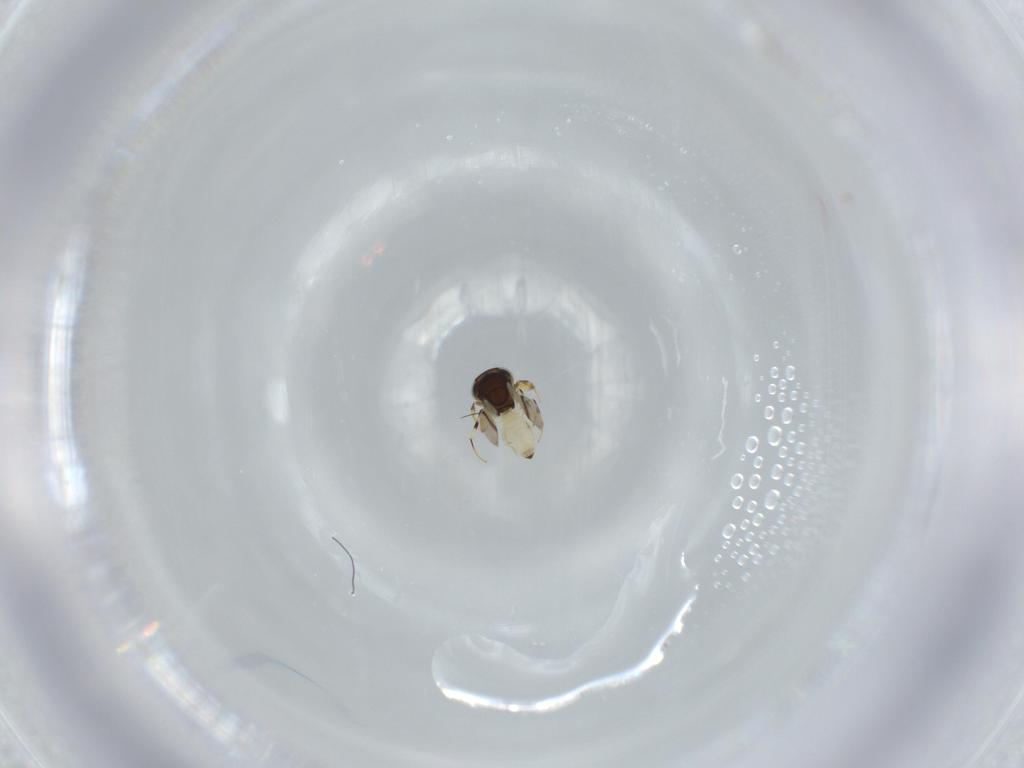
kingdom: Animalia
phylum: Arthropoda
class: Insecta
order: Hymenoptera
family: Scelionidae
